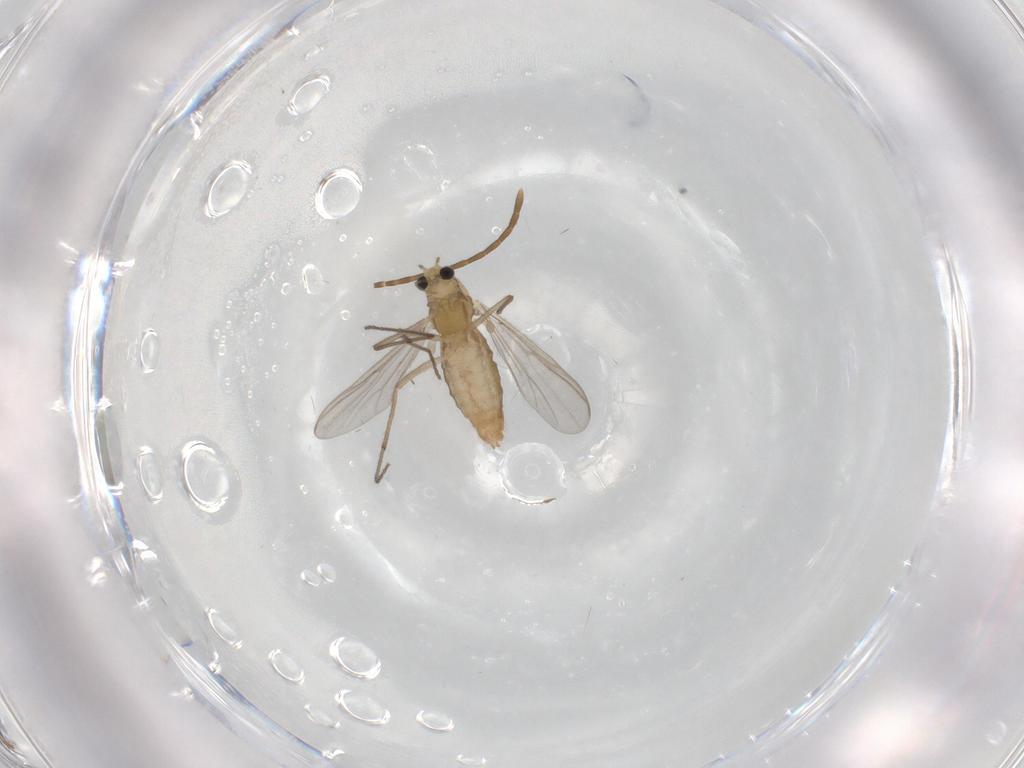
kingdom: Animalia
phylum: Arthropoda
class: Insecta
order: Diptera
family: Chironomidae
